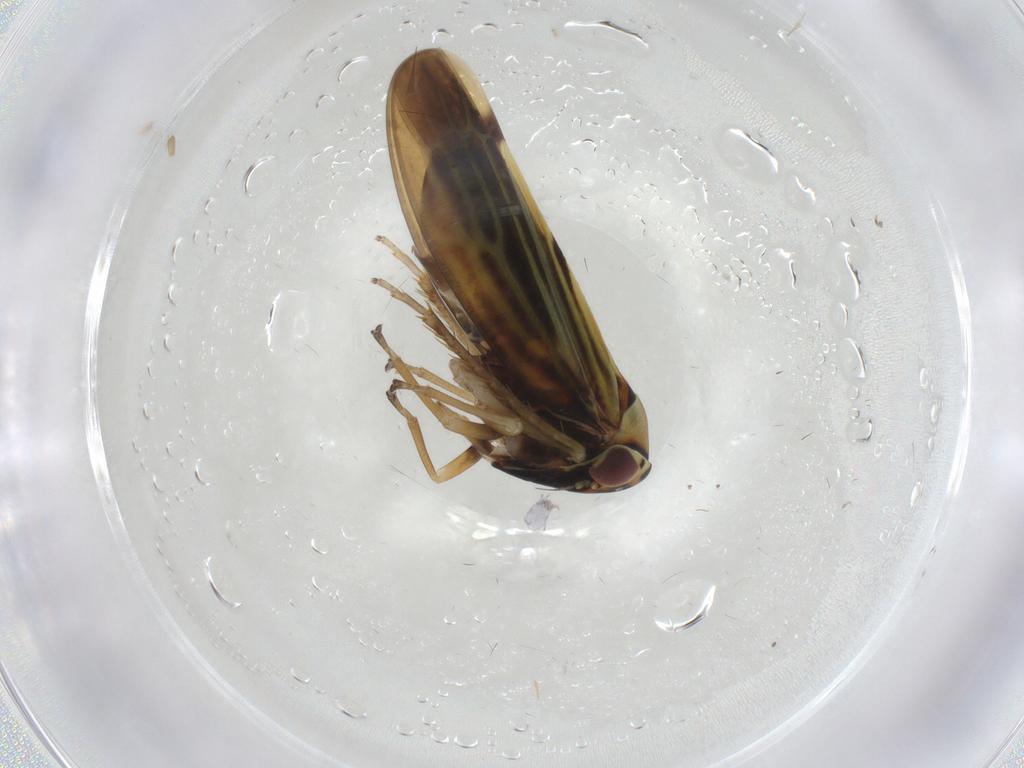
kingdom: Animalia
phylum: Arthropoda
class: Insecta
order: Hemiptera
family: Cicadellidae
